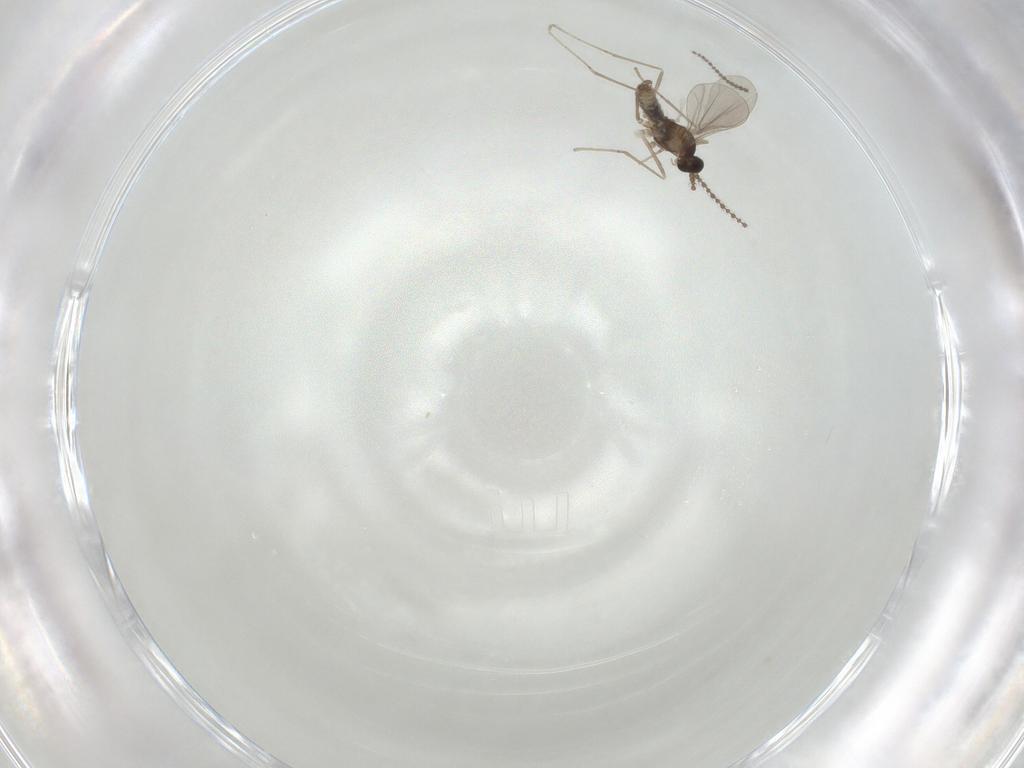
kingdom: Animalia
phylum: Arthropoda
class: Insecta
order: Diptera
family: Cecidomyiidae
